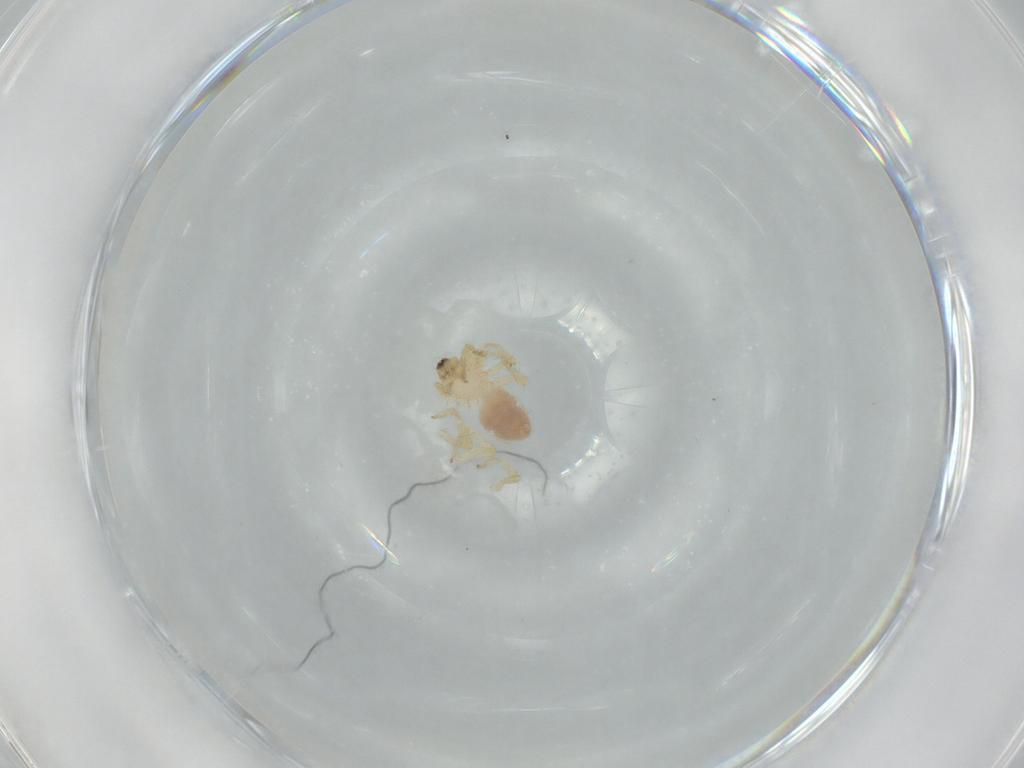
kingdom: Animalia
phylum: Arthropoda
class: Arachnida
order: Araneae
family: Oonopidae
